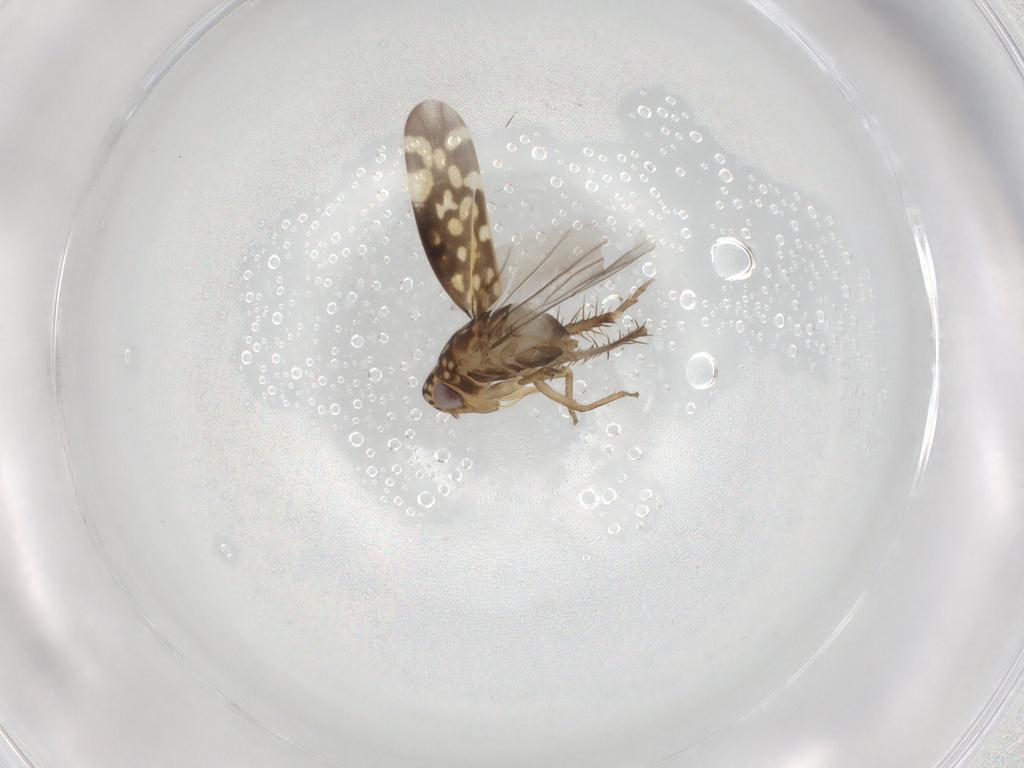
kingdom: Animalia
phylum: Arthropoda
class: Insecta
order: Hemiptera
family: Cicadellidae
